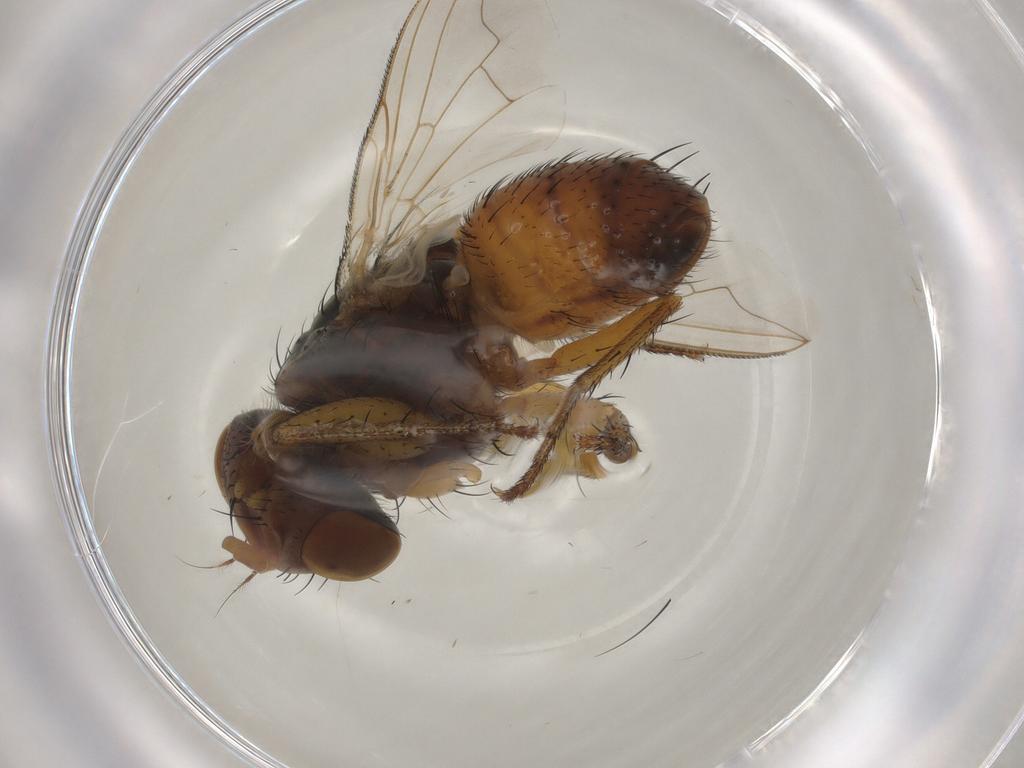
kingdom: Animalia
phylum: Arthropoda
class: Insecta
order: Diptera
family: Sarcophagidae
